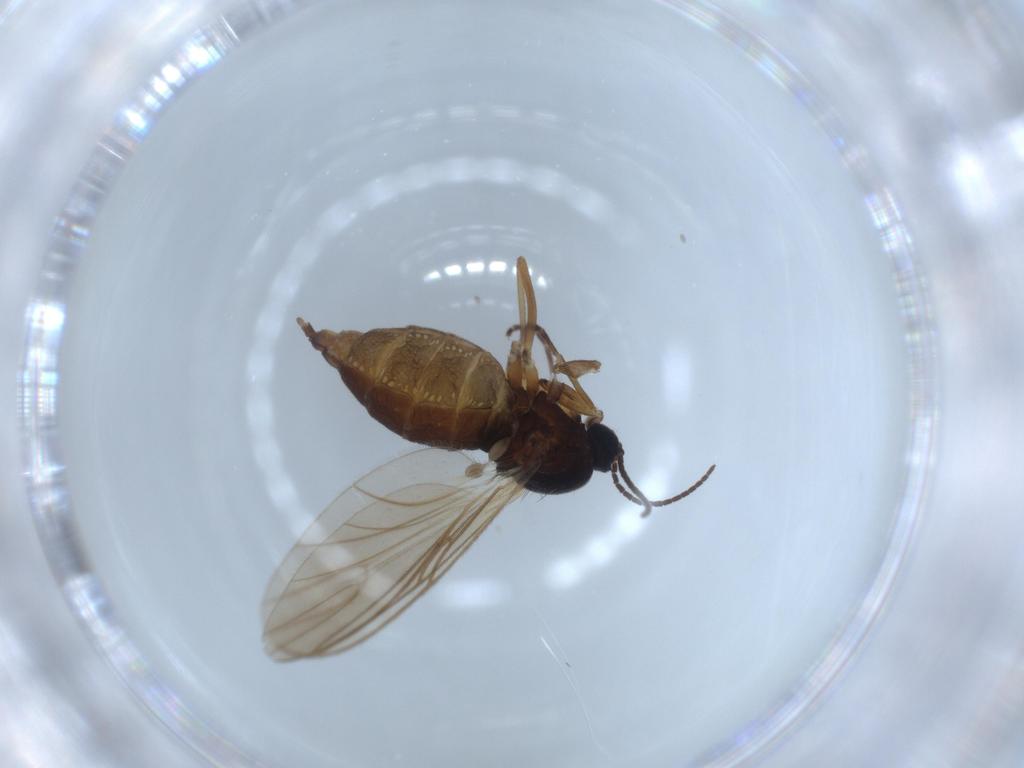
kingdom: Animalia
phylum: Arthropoda
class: Insecta
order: Diptera
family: Sciaridae
